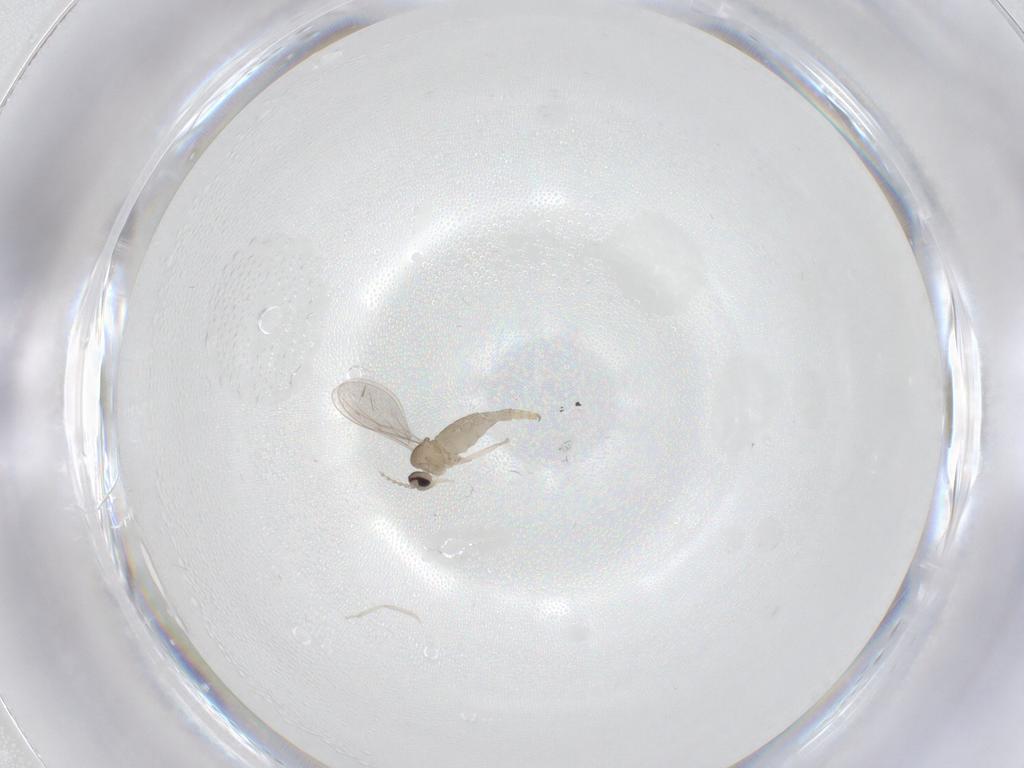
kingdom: Animalia
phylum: Arthropoda
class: Insecta
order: Diptera
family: Cecidomyiidae
